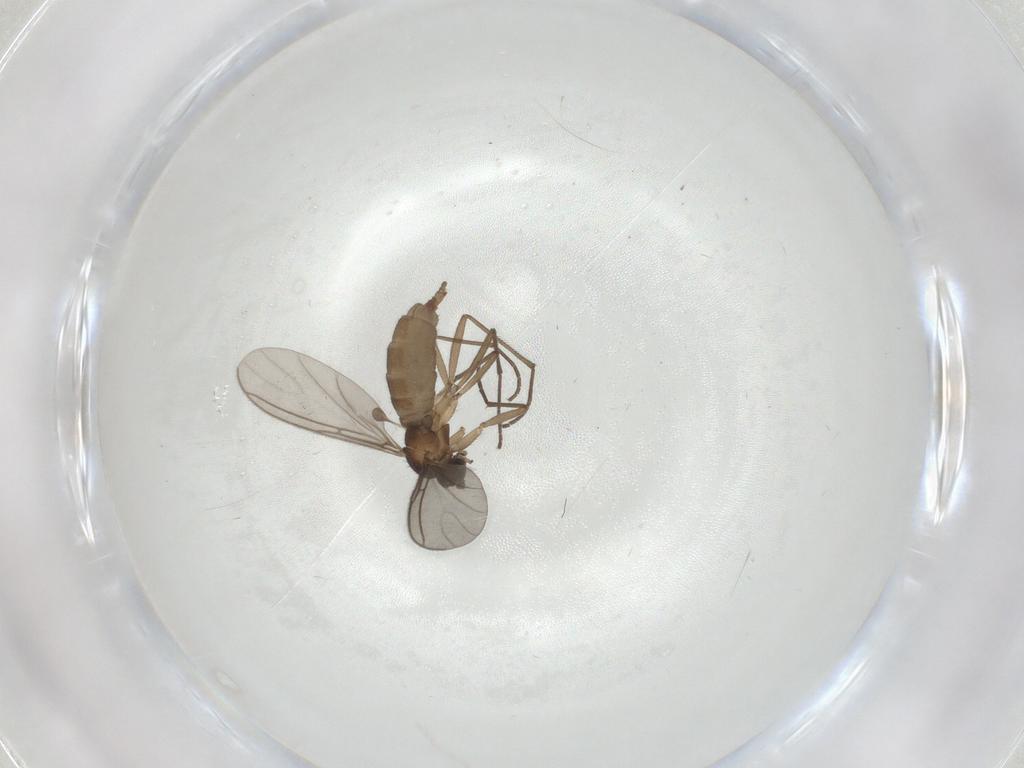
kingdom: Animalia
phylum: Arthropoda
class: Insecta
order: Diptera
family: Sciaridae
